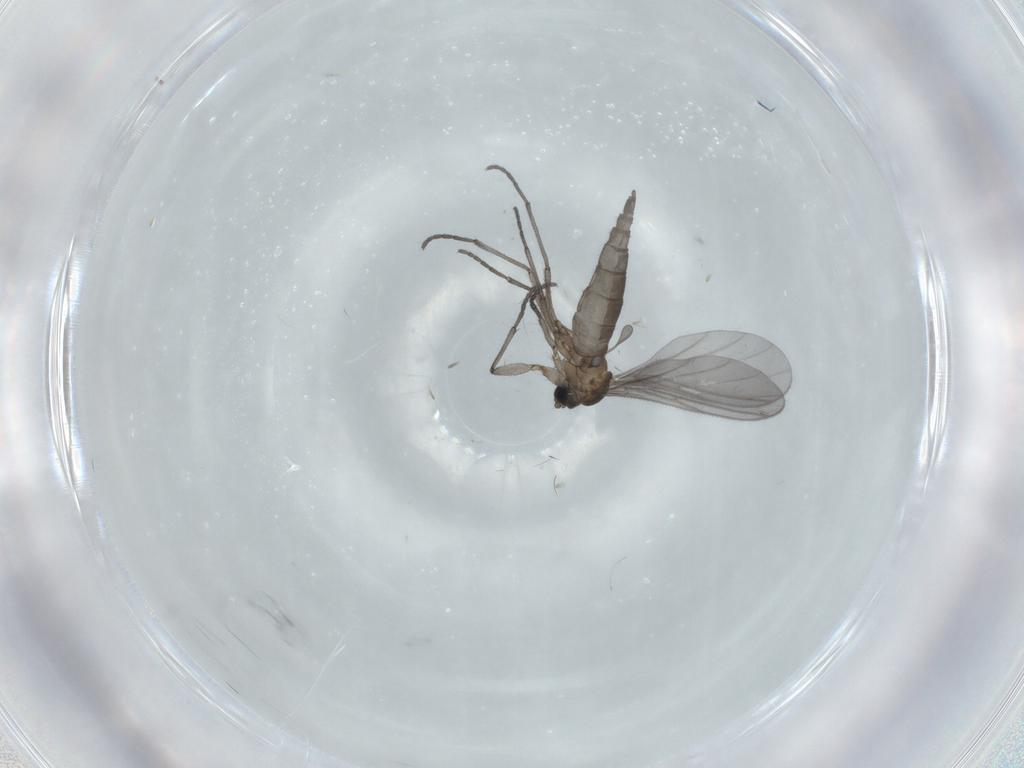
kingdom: Animalia
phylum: Arthropoda
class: Insecta
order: Diptera
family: Sciaridae
